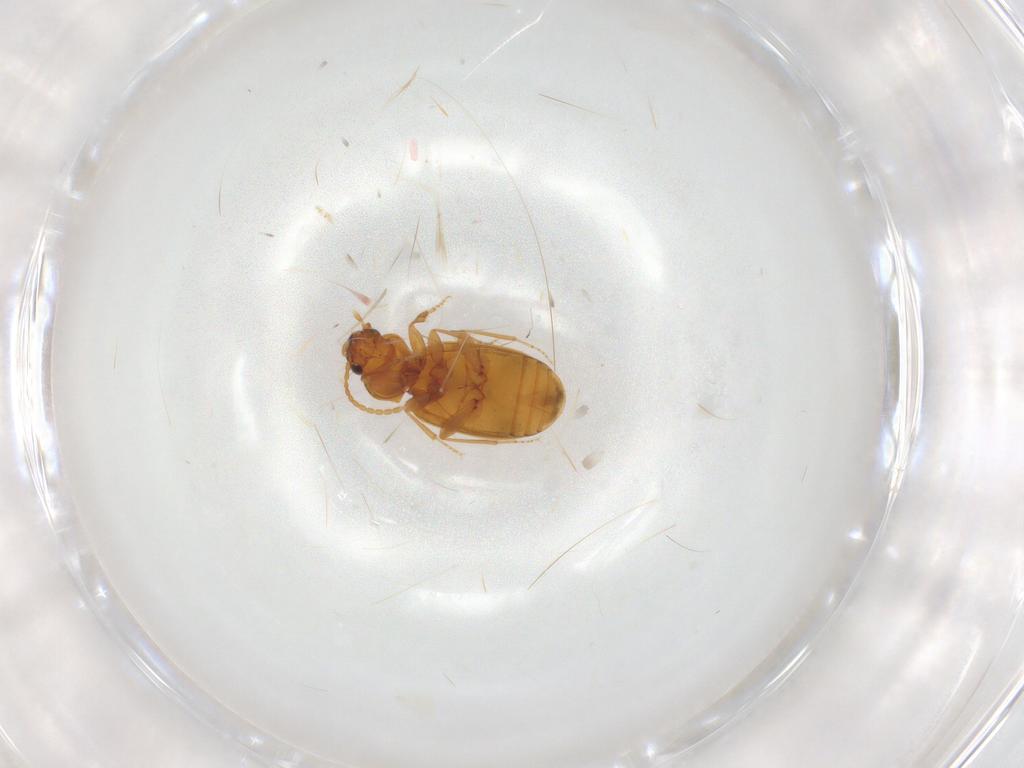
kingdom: Animalia
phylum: Arthropoda
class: Insecta
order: Coleoptera
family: Carabidae
